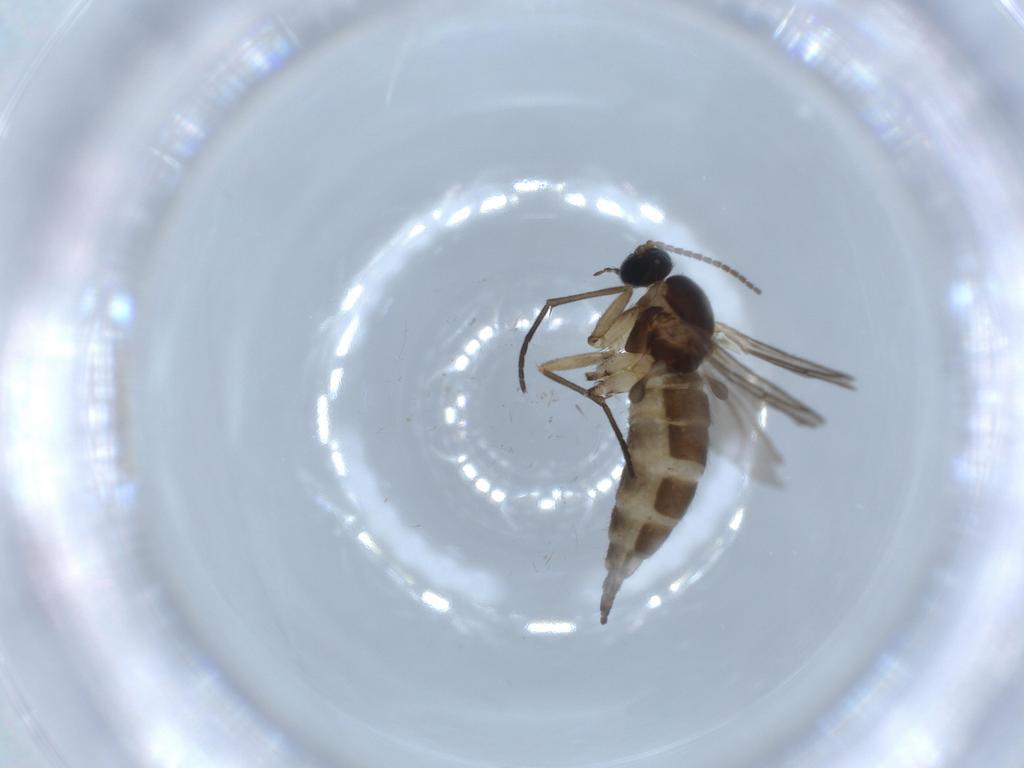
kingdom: Animalia
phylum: Arthropoda
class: Insecta
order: Diptera
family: Sciaridae
